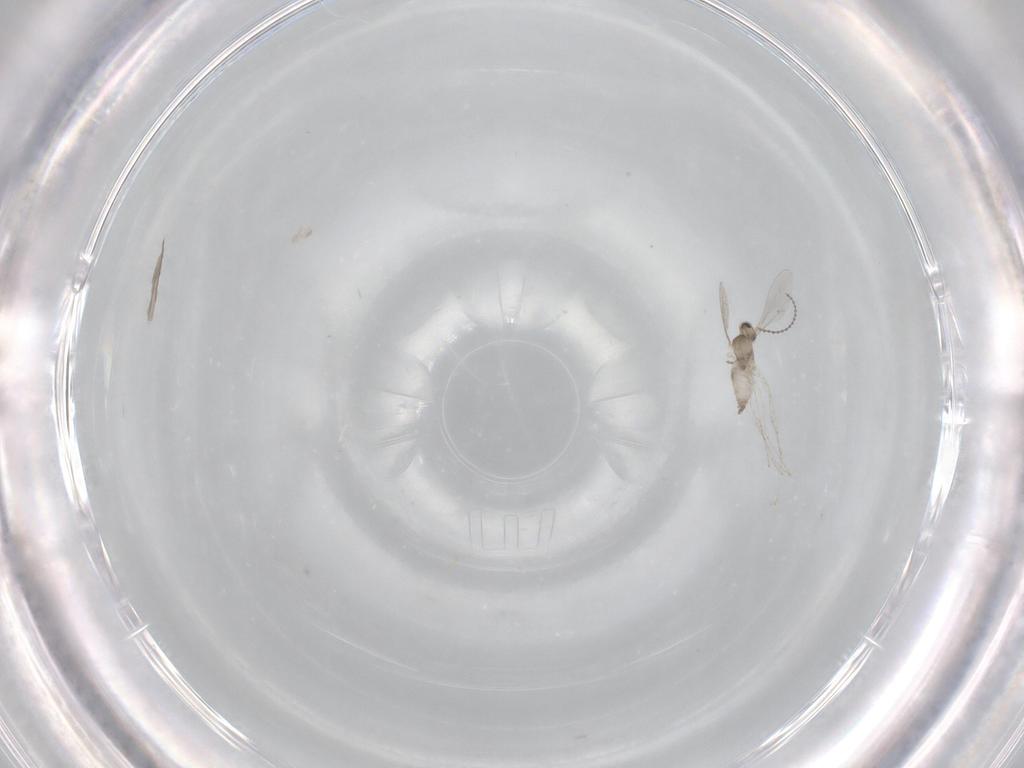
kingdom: Animalia
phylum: Arthropoda
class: Insecta
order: Diptera
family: Cecidomyiidae
